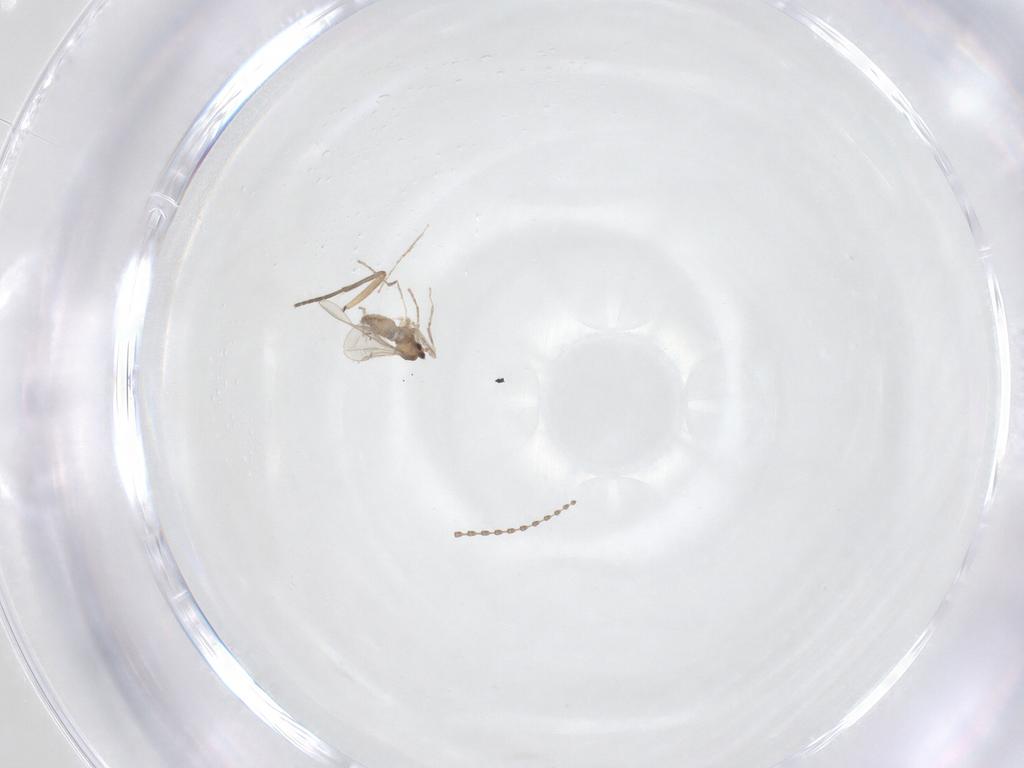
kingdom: Animalia
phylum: Arthropoda
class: Insecta
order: Diptera
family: Cecidomyiidae
